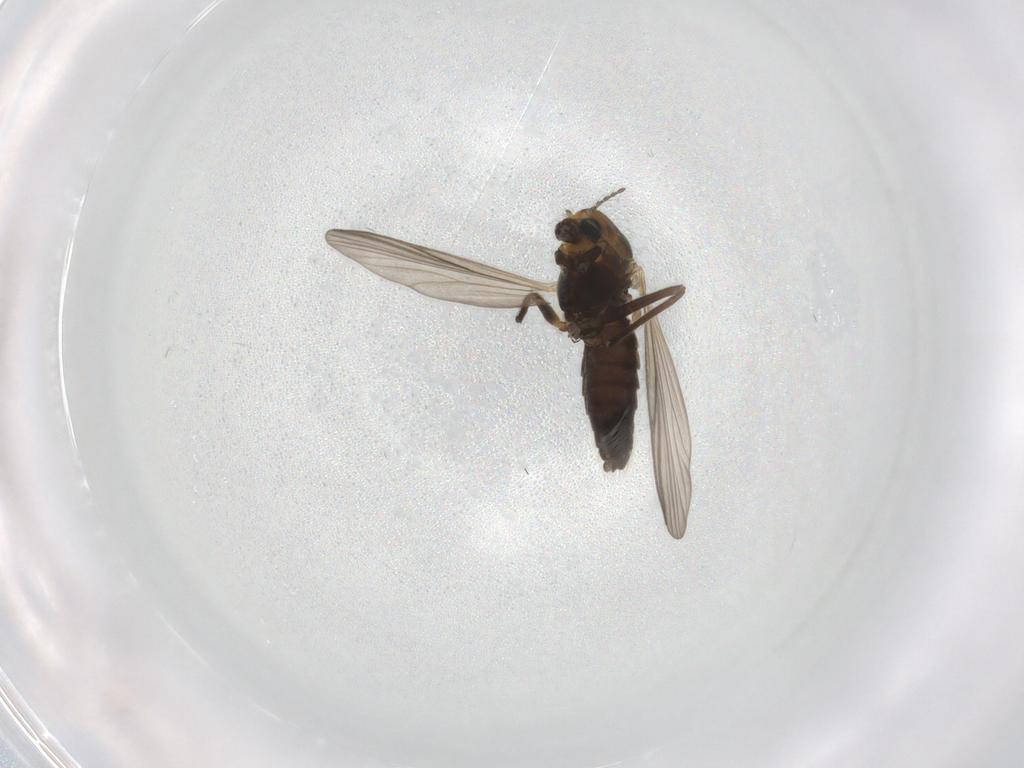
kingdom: Animalia
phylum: Arthropoda
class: Insecta
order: Diptera
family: Chironomidae
